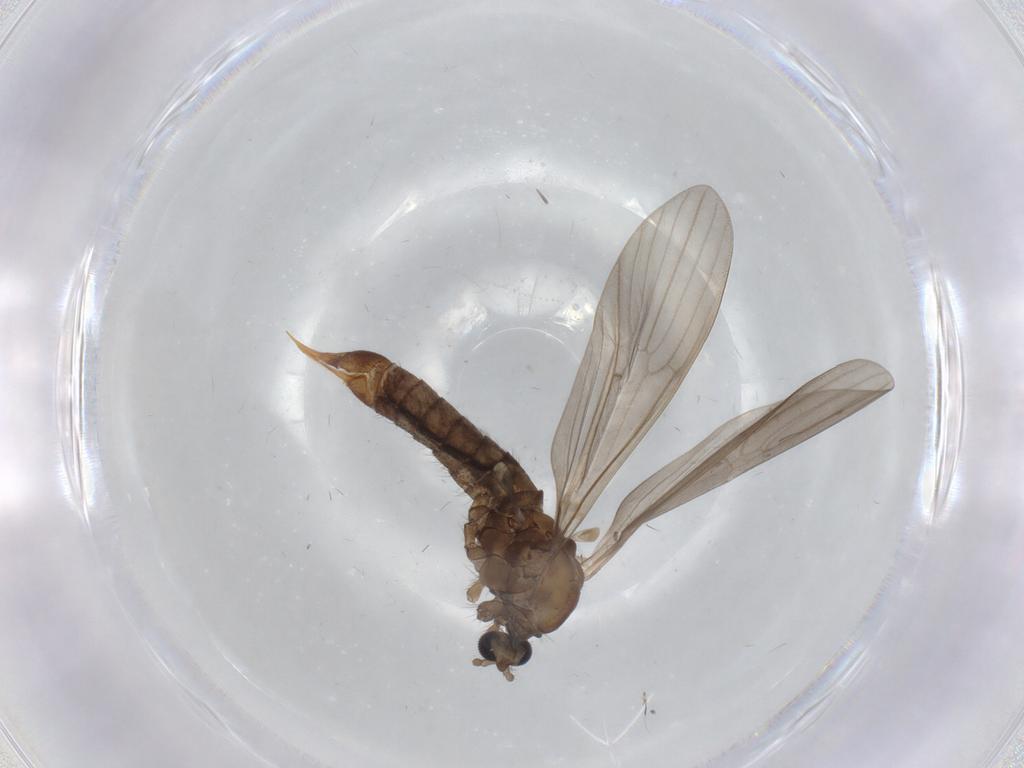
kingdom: Animalia
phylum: Arthropoda
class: Insecta
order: Diptera
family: Limoniidae
